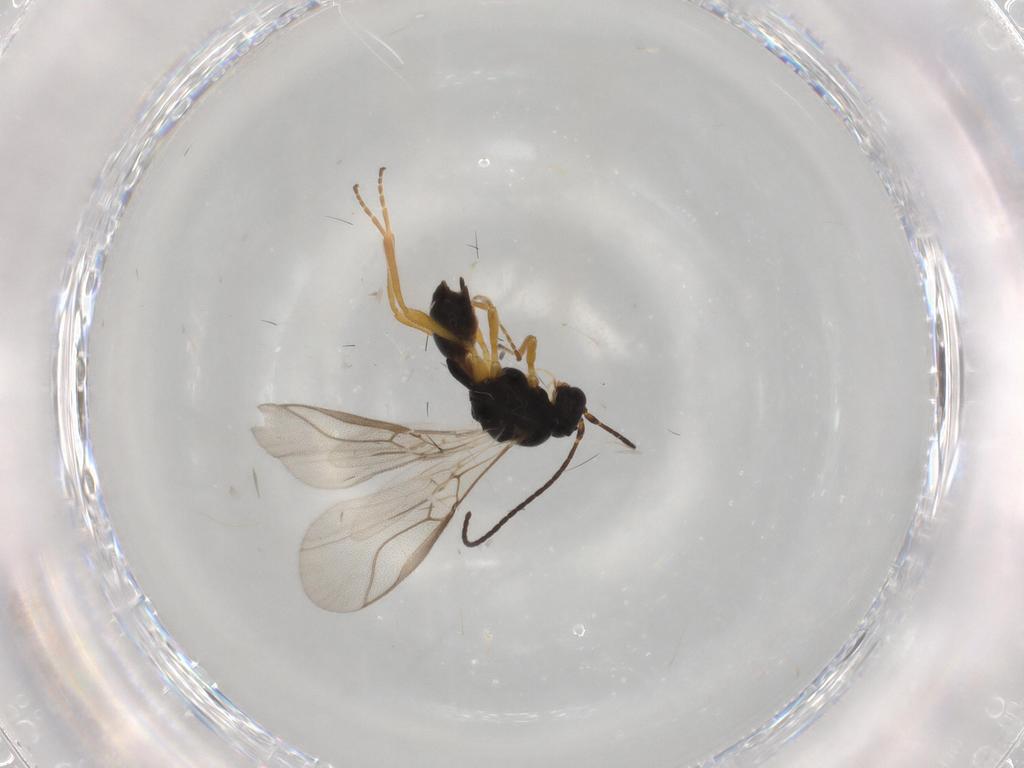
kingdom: Animalia
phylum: Arthropoda
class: Insecta
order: Hymenoptera
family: Braconidae
